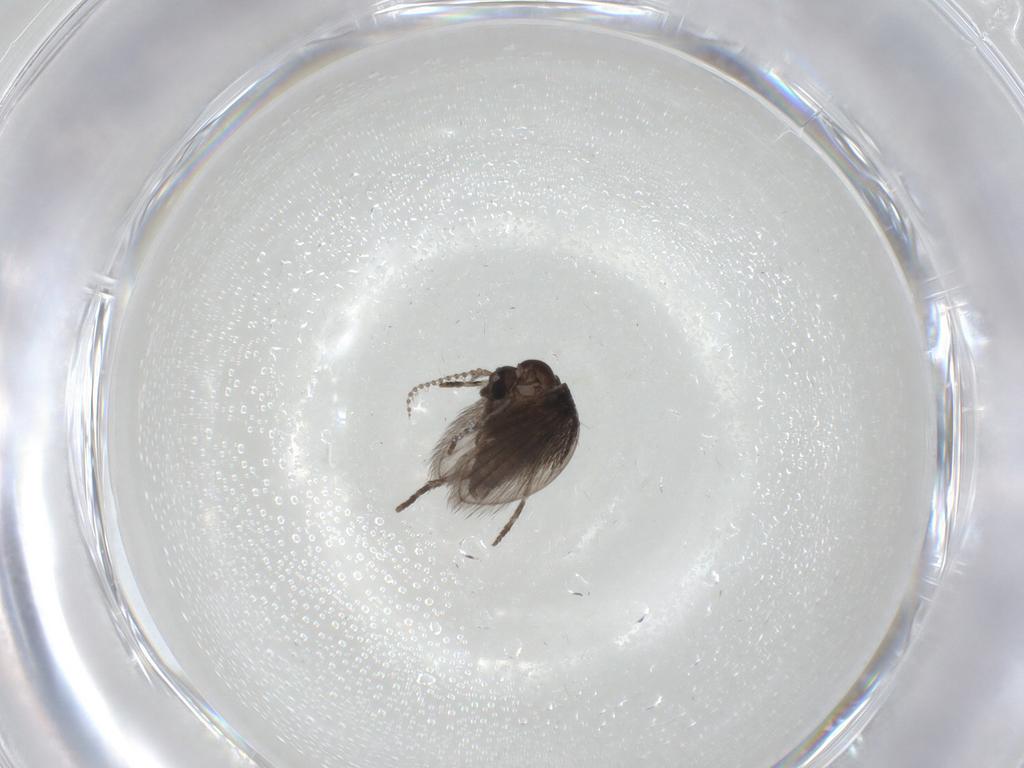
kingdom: Animalia
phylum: Arthropoda
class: Insecta
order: Diptera
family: Psychodidae
